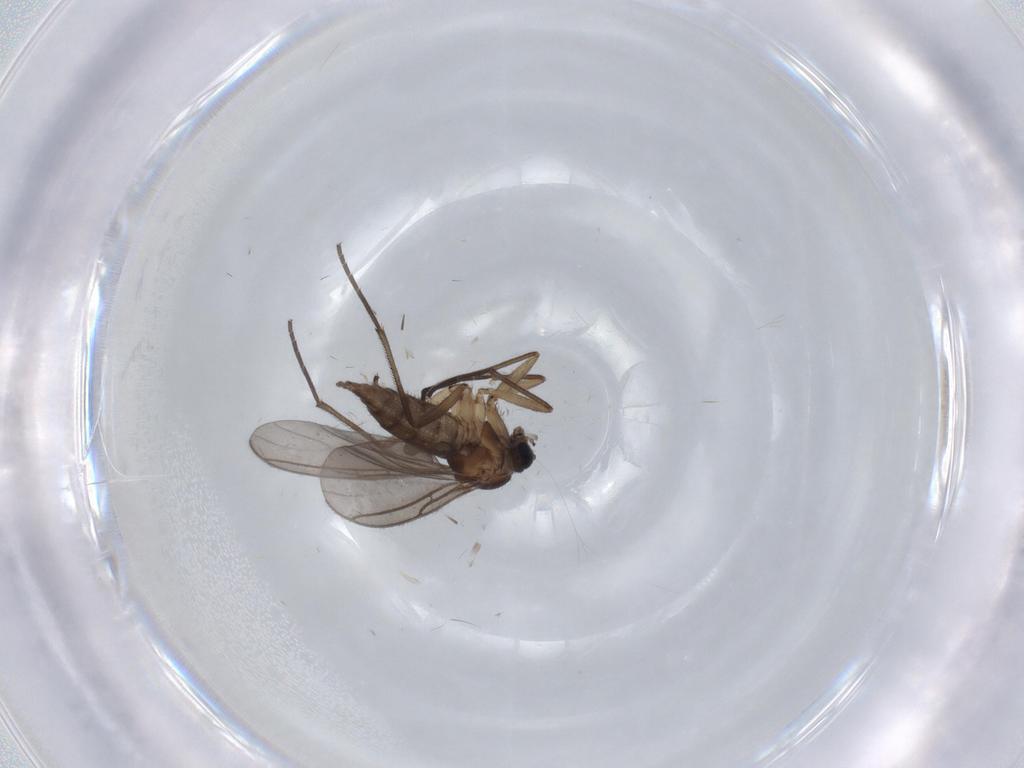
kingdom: Animalia
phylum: Arthropoda
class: Insecta
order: Diptera
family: Sciaridae
